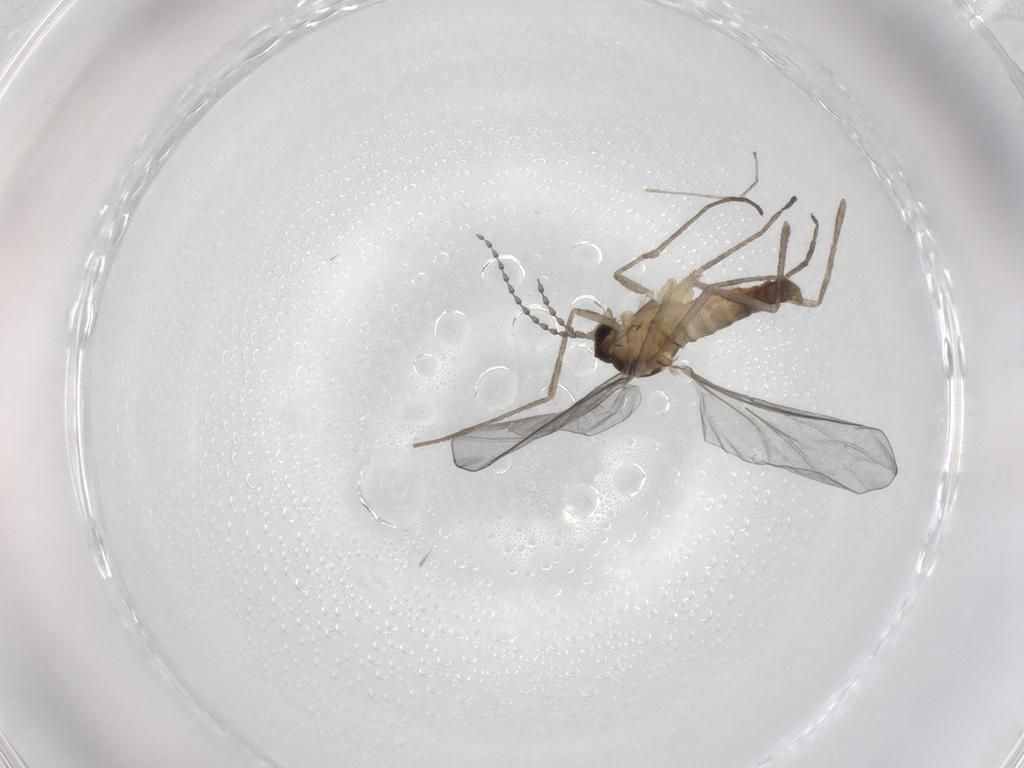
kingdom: Animalia
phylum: Arthropoda
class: Insecta
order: Diptera
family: Cecidomyiidae
